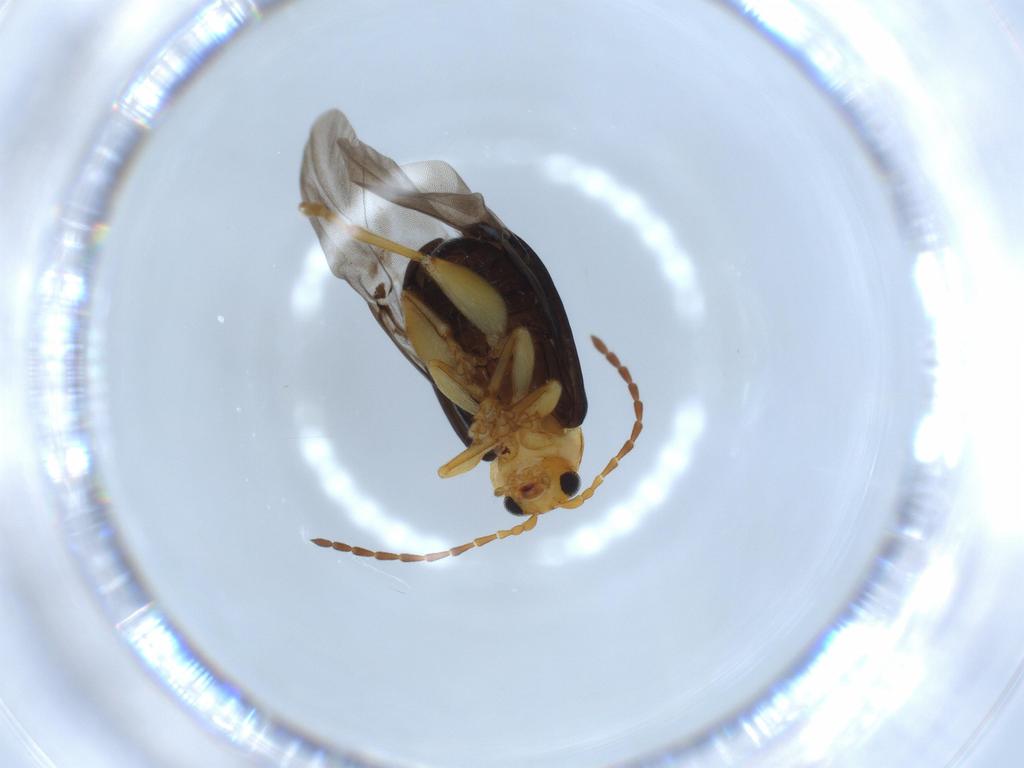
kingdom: Animalia
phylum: Arthropoda
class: Insecta
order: Coleoptera
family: Chrysomelidae
